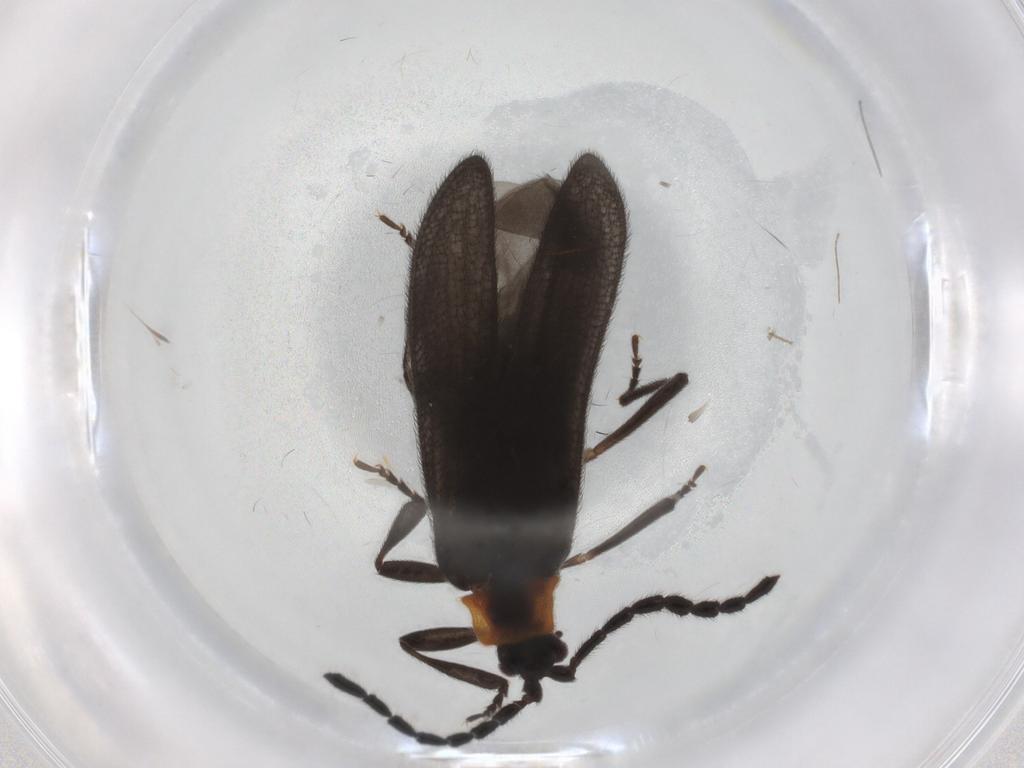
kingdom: Animalia
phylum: Arthropoda
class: Insecta
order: Coleoptera
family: Lycidae
